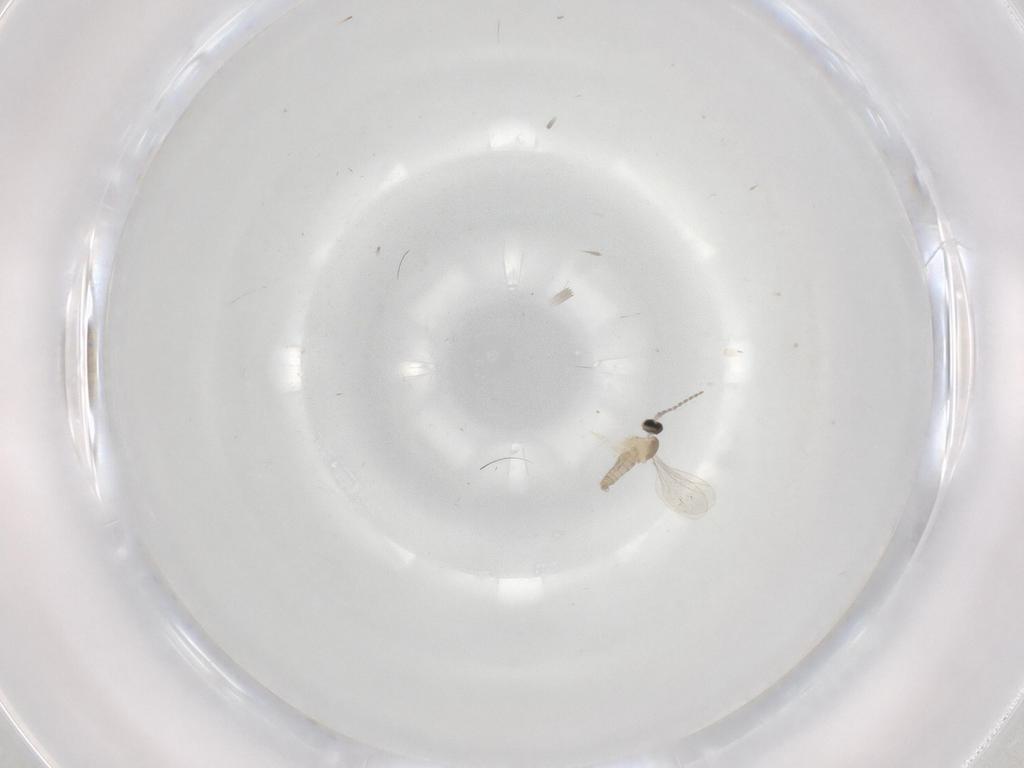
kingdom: Animalia
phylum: Arthropoda
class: Insecta
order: Diptera
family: Cecidomyiidae
